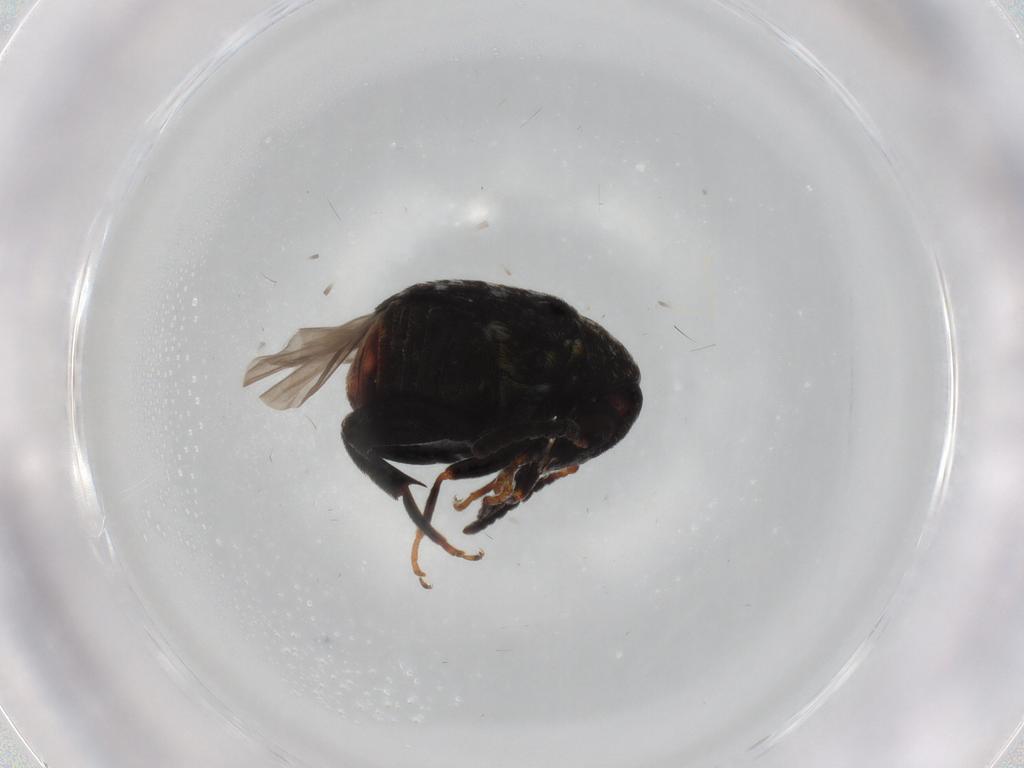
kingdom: Animalia
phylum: Arthropoda
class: Insecta
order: Coleoptera
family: Chrysomelidae
